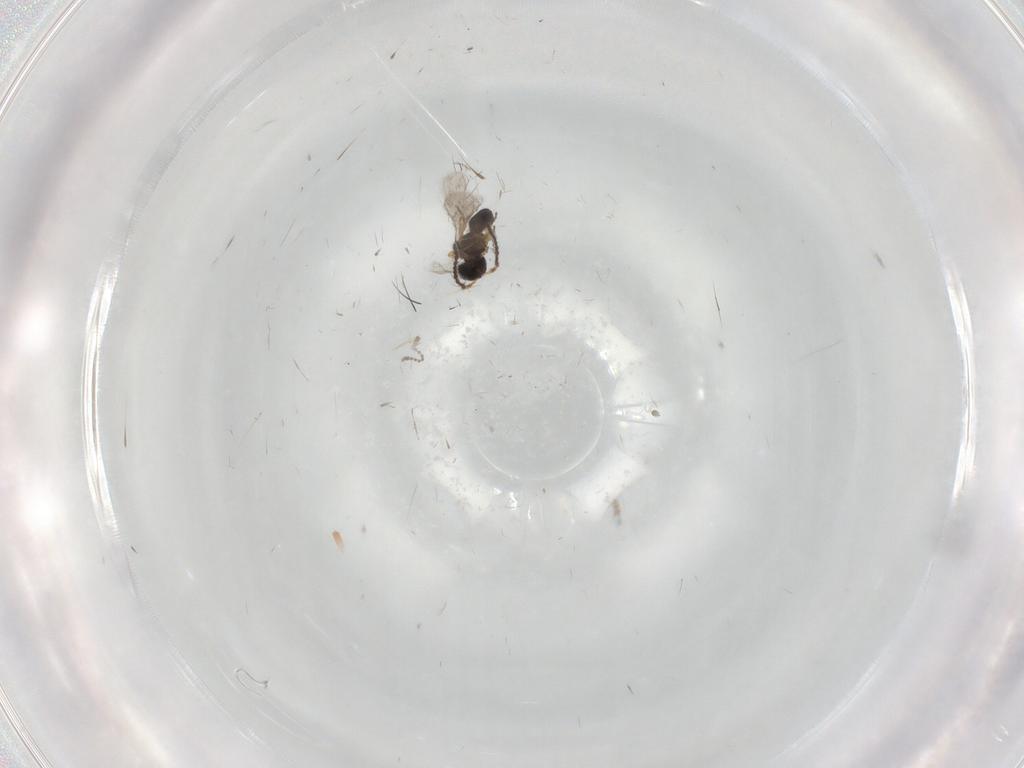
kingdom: Animalia
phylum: Arthropoda
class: Insecta
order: Hymenoptera
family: Scelionidae
